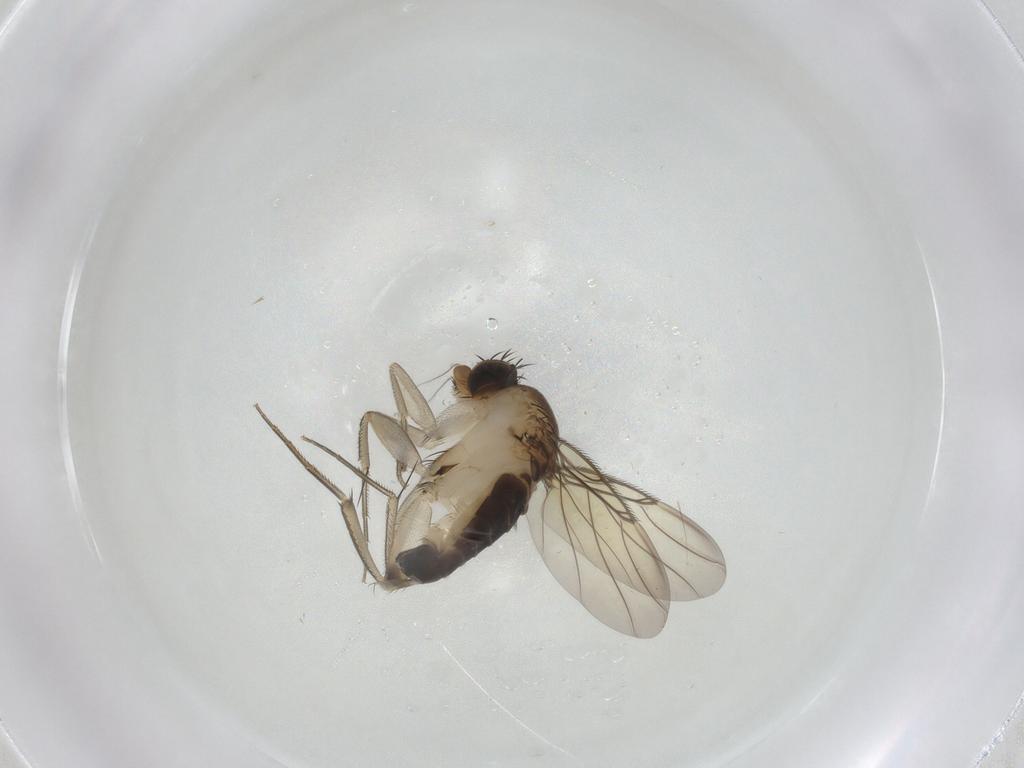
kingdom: Animalia
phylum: Arthropoda
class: Insecta
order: Diptera
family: Phoridae
